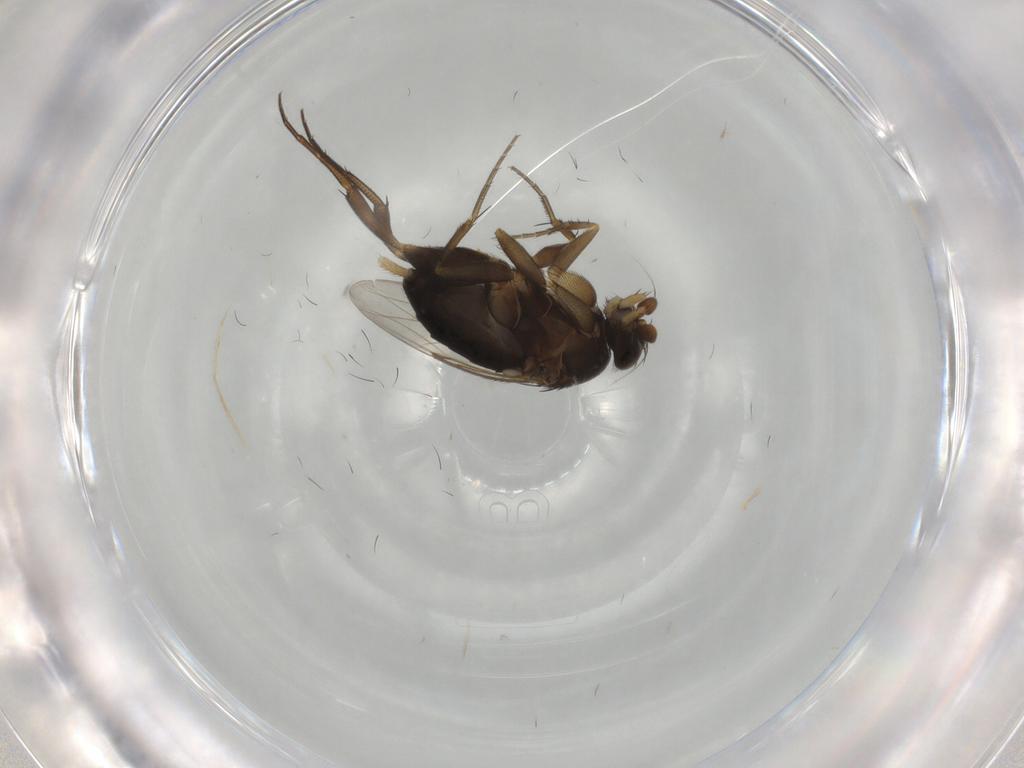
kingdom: Animalia
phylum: Arthropoda
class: Insecta
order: Diptera
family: Phoridae
